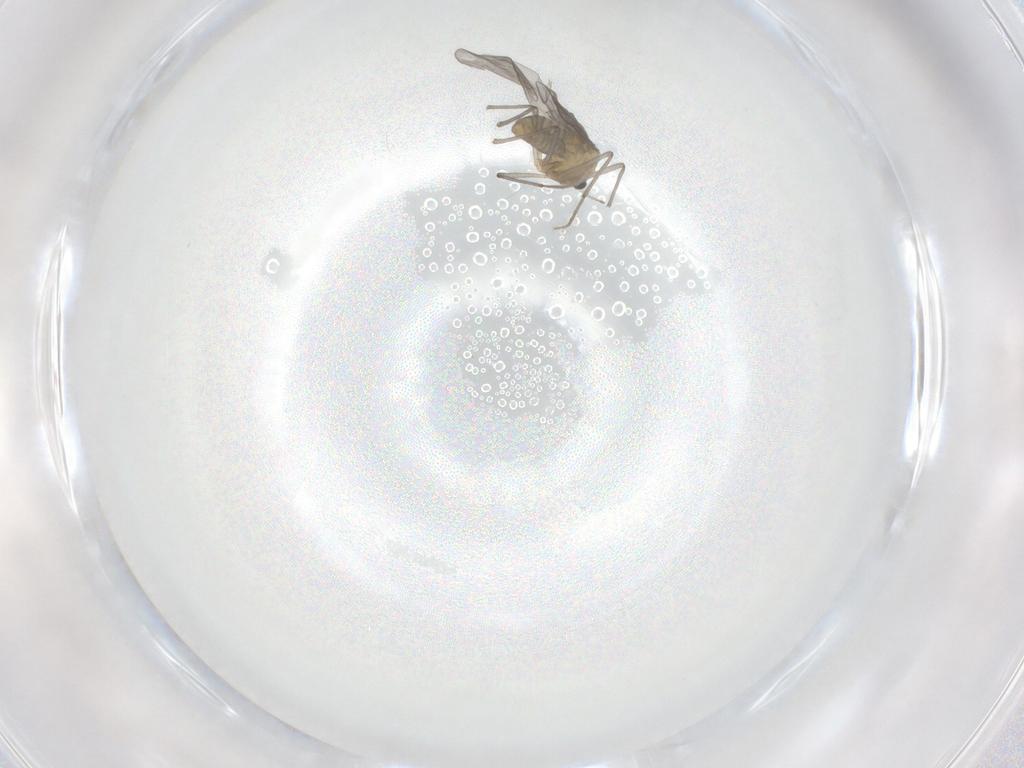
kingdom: Animalia
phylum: Arthropoda
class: Insecta
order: Diptera
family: Chironomidae
